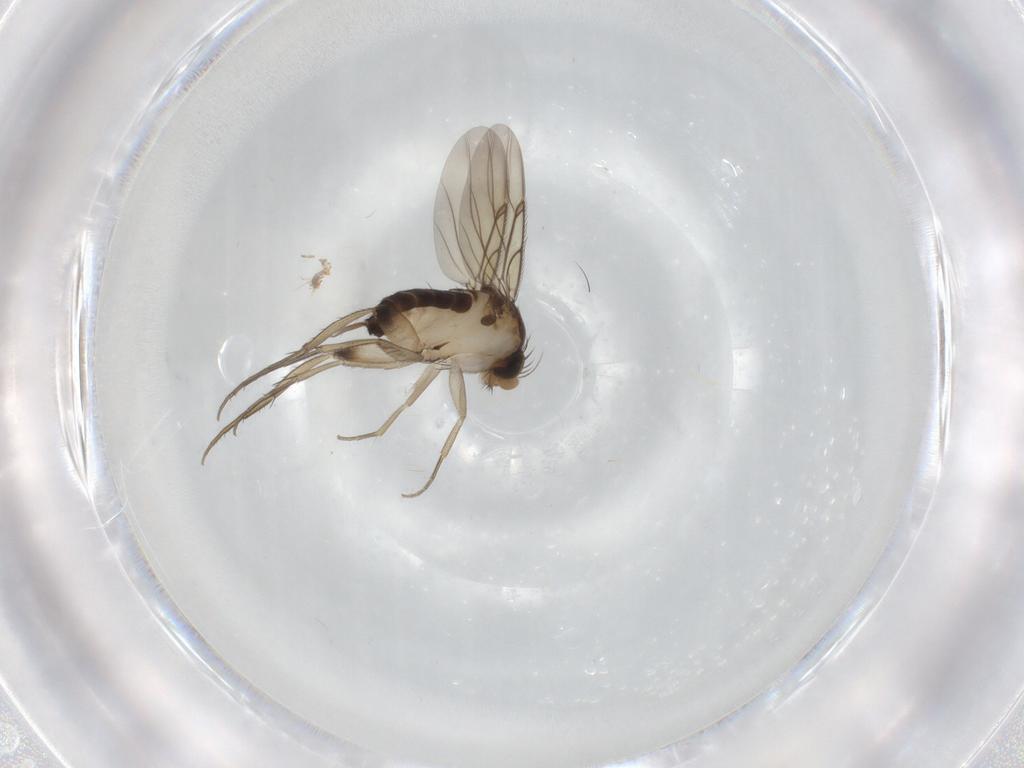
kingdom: Animalia
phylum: Arthropoda
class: Insecta
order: Diptera
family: Phoridae
